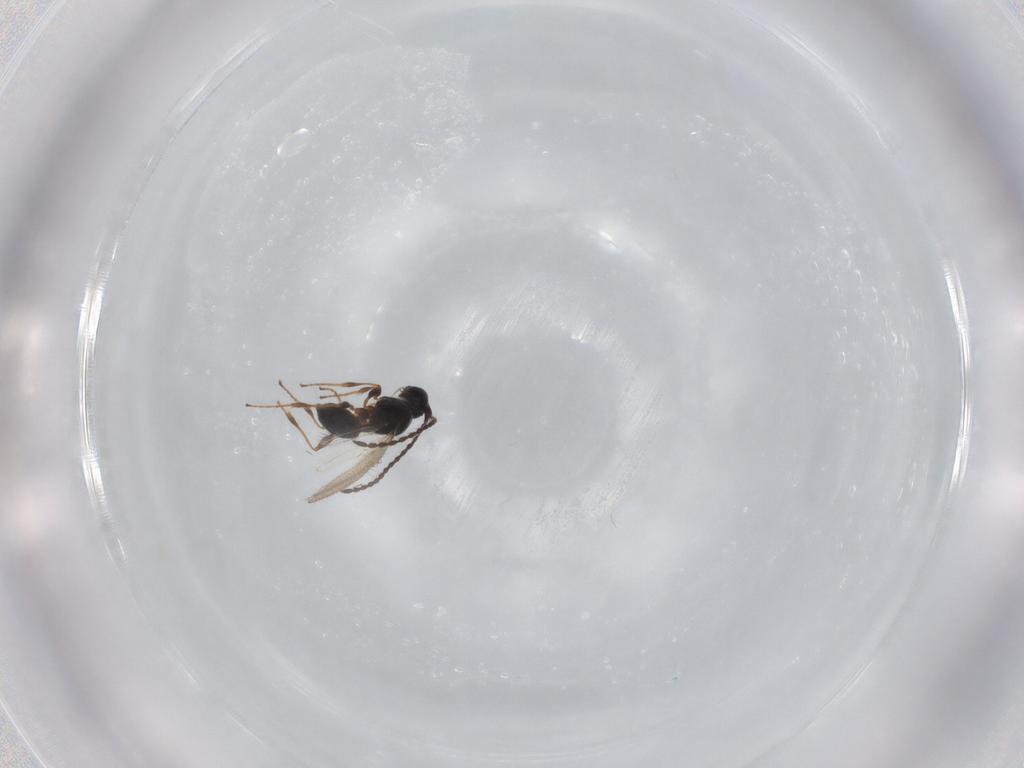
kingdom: Animalia
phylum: Arthropoda
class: Insecta
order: Hymenoptera
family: Diapriidae
